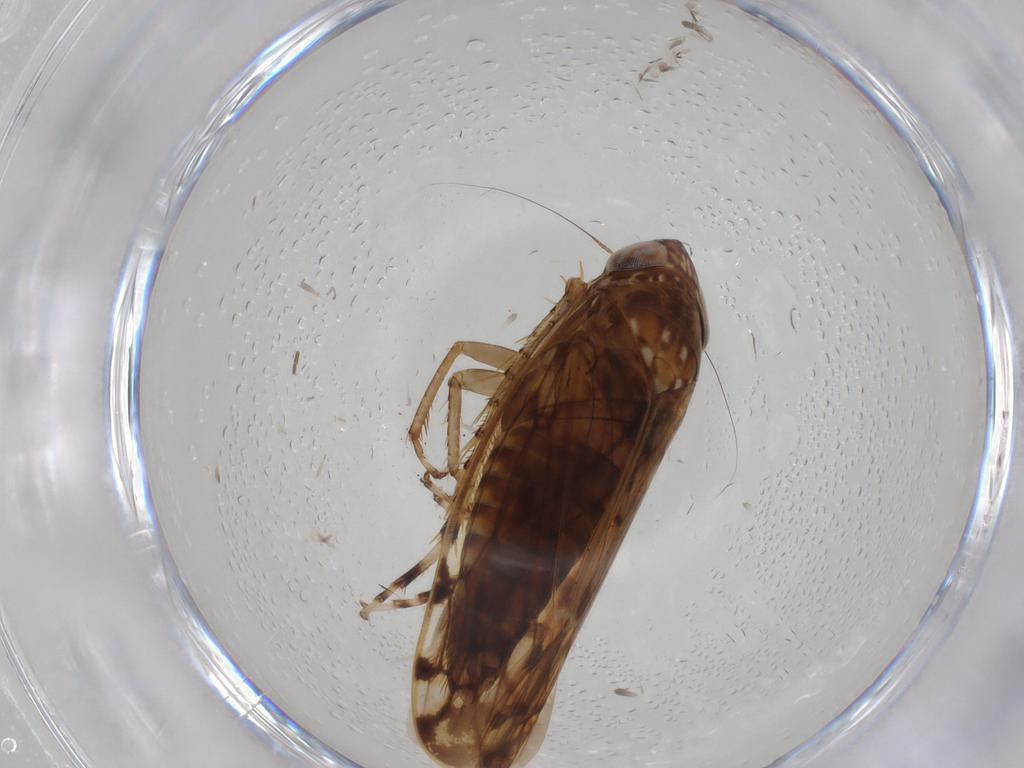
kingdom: Animalia
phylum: Arthropoda
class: Insecta
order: Hemiptera
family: Cicadellidae
